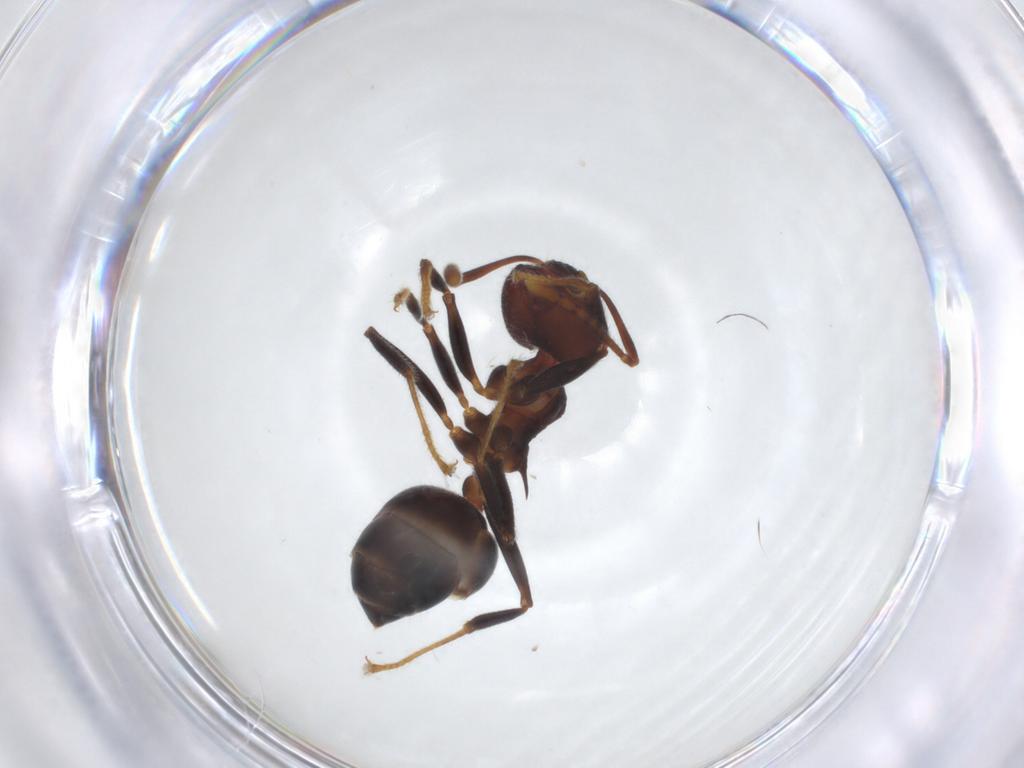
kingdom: Animalia
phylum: Arthropoda
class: Insecta
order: Hymenoptera
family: Formicidae
